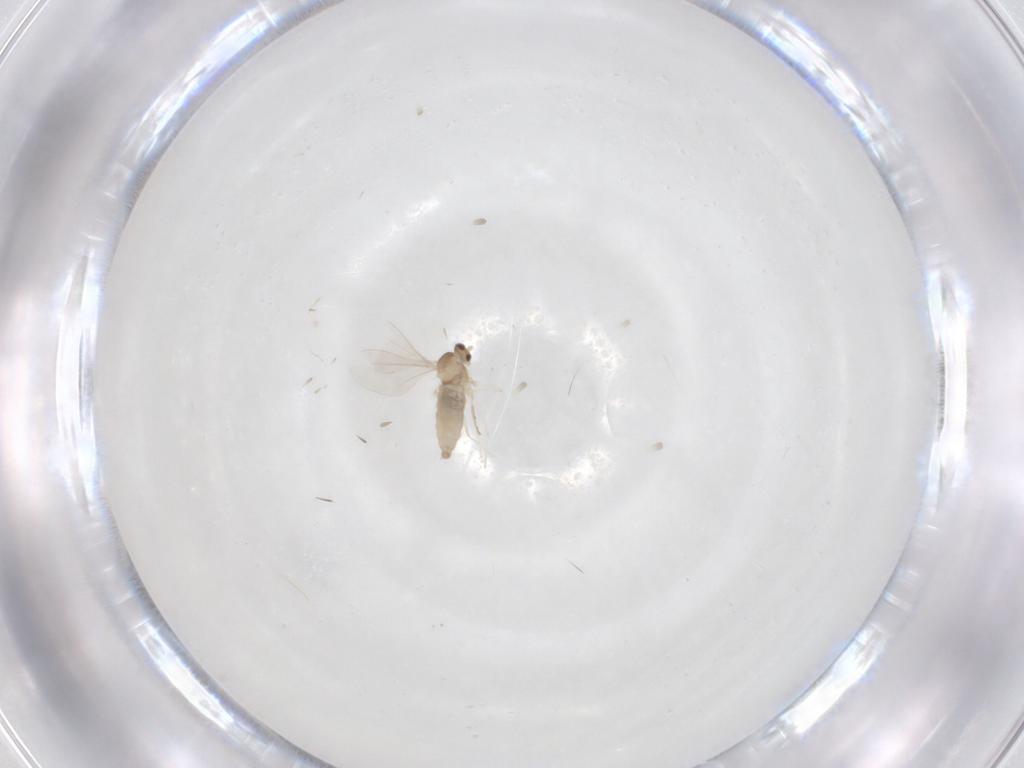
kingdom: Animalia
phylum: Arthropoda
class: Insecta
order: Diptera
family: Cecidomyiidae
